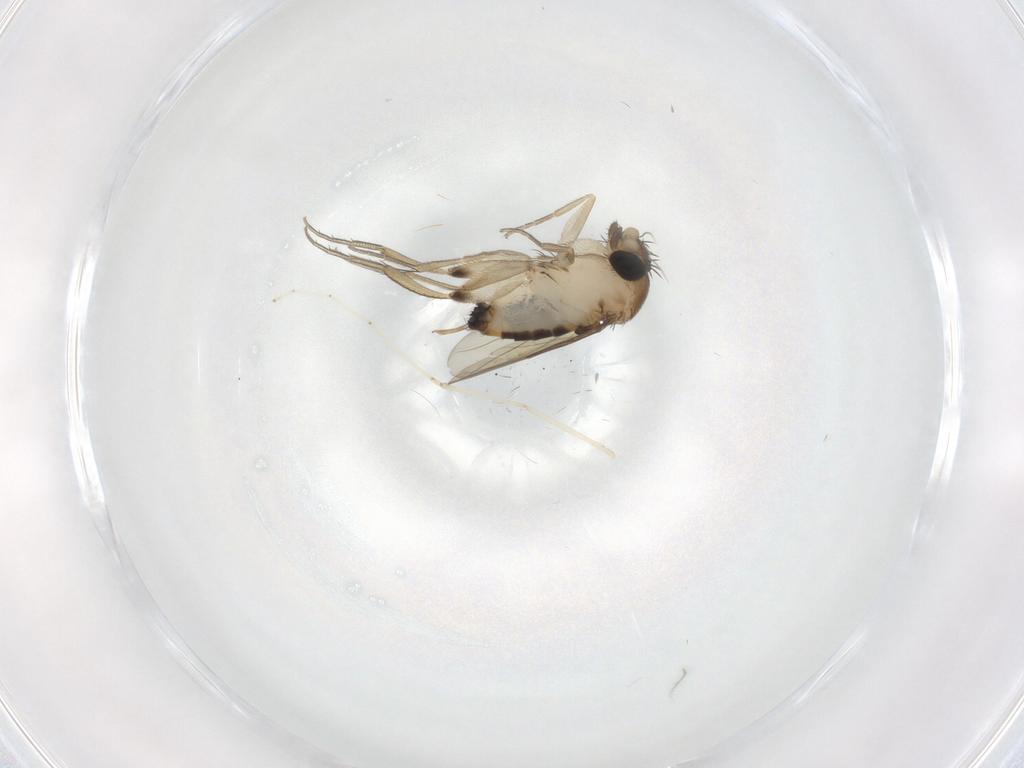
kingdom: Animalia
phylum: Arthropoda
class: Insecta
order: Diptera
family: Phoridae
